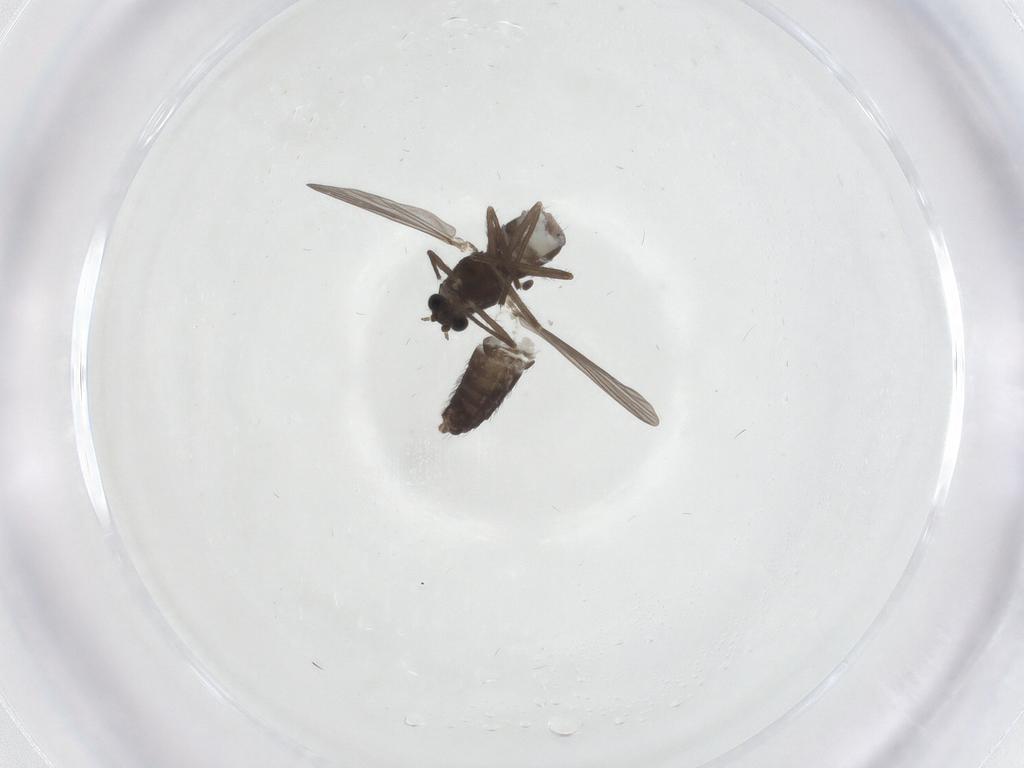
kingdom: Animalia
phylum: Arthropoda
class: Insecta
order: Diptera
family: Chironomidae
